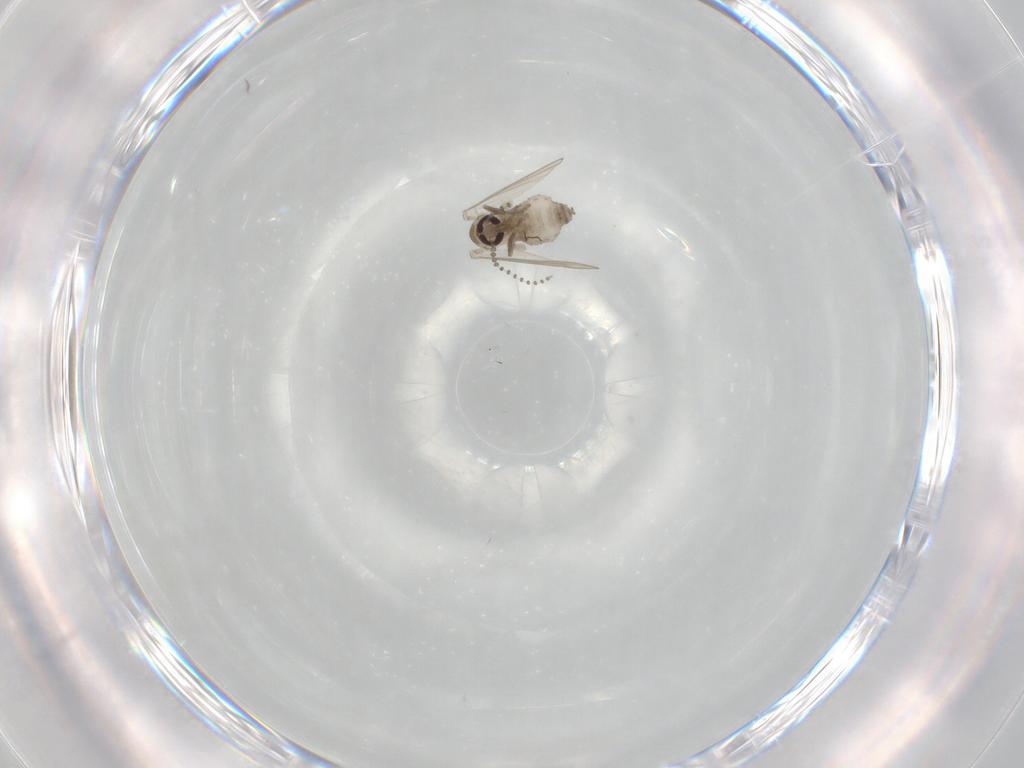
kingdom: Animalia
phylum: Arthropoda
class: Insecta
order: Diptera
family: Psychodidae
